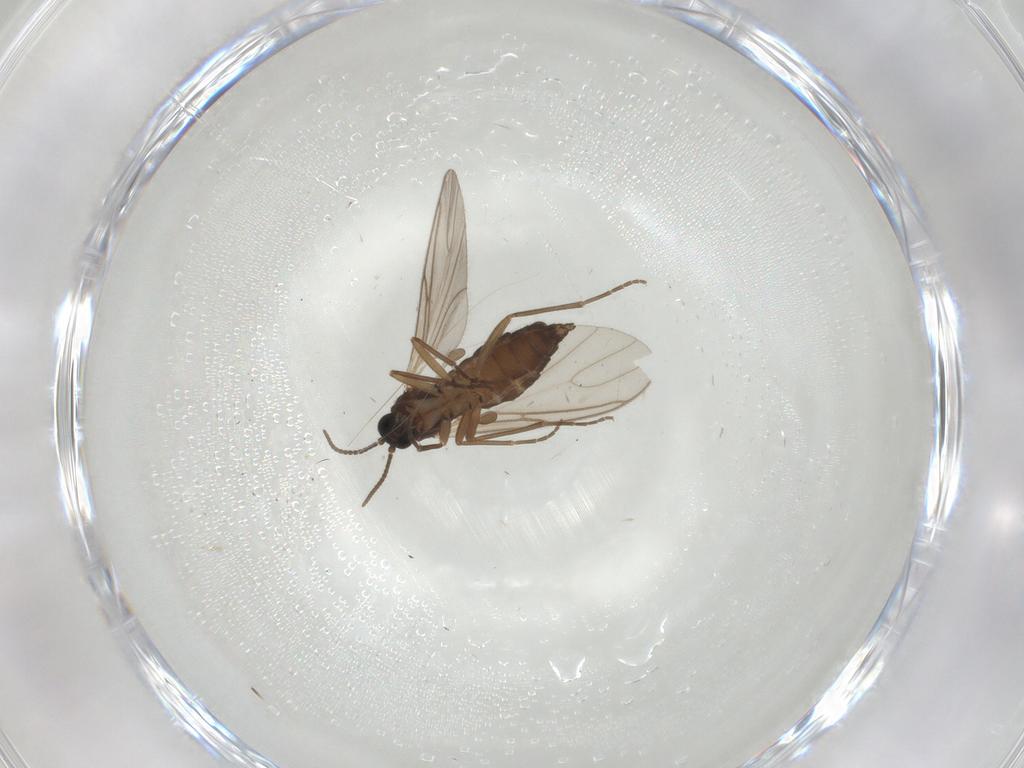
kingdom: Animalia
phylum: Arthropoda
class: Insecta
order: Diptera
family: Sciaridae
